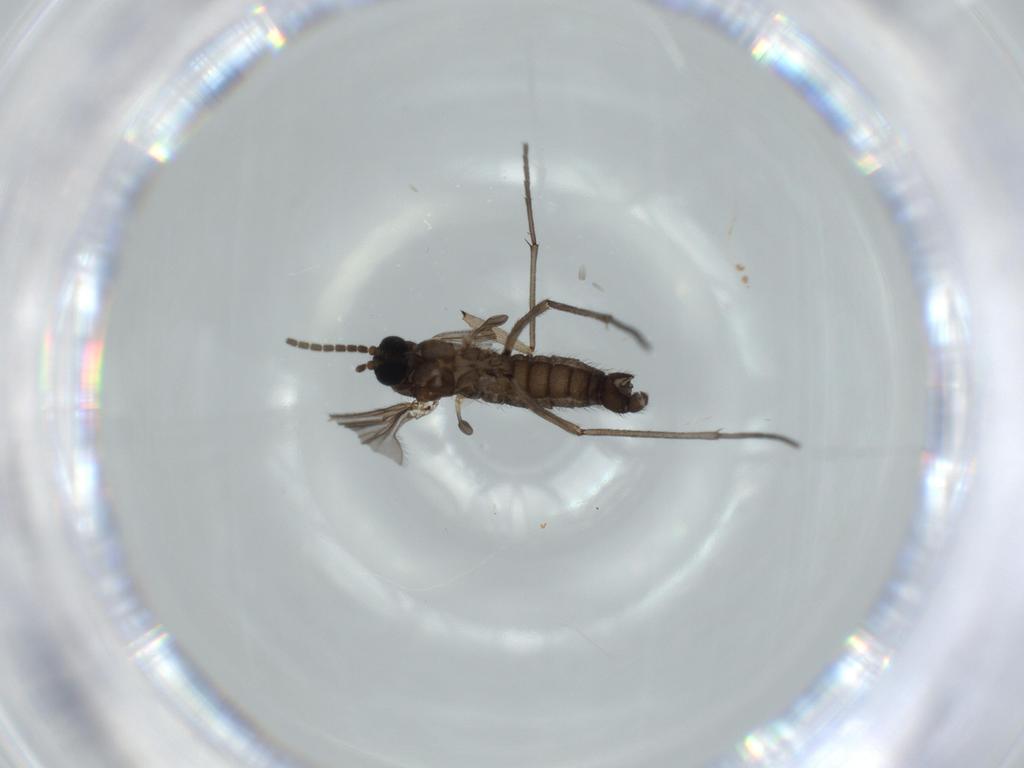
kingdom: Animalia
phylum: Arthropoda
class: Insecta
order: Diptera
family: Sciaridae
